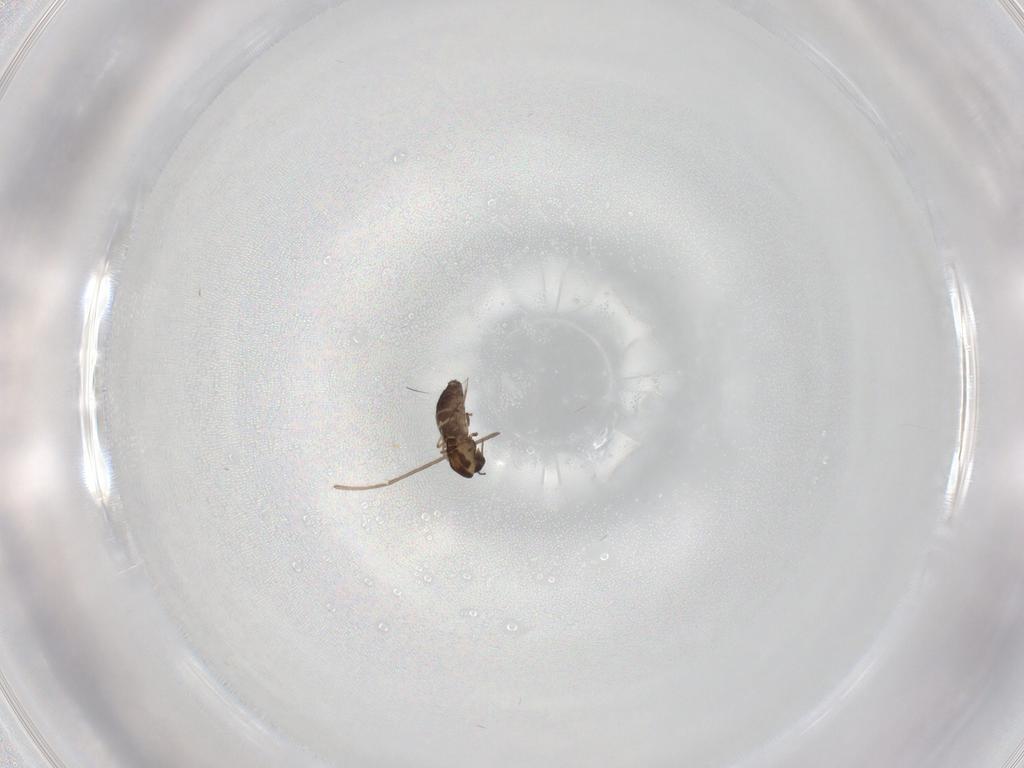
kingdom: Animalia
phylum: Arthropoda
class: Insecta
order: Diptera
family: Chironomidae
